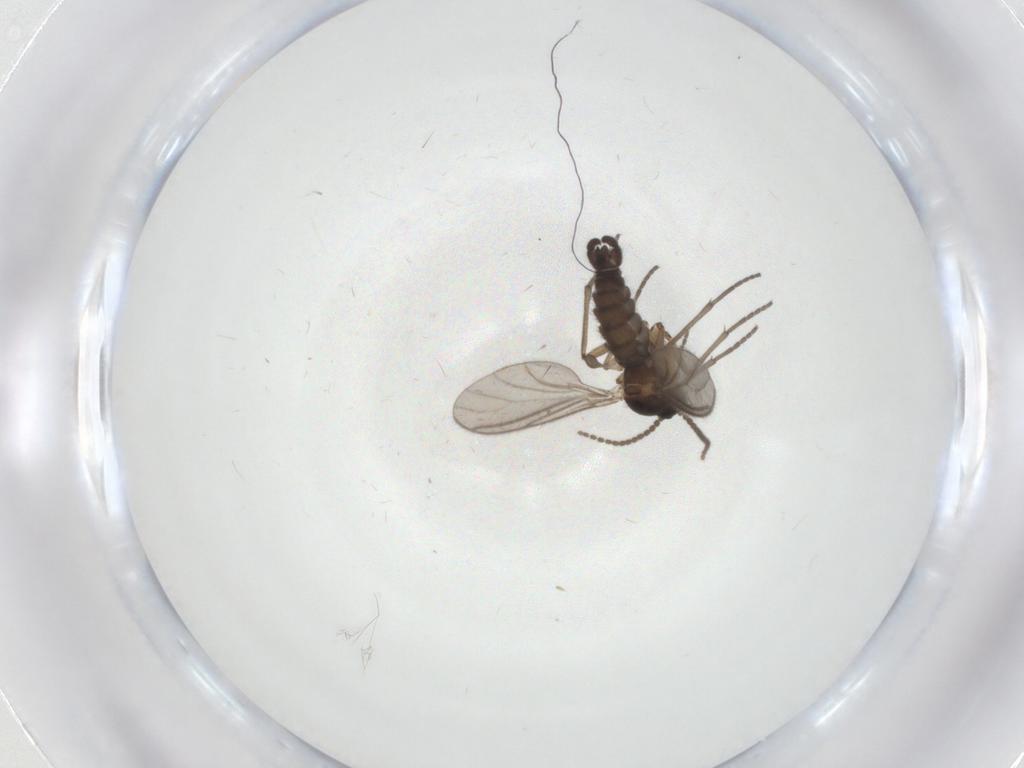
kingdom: Animalia
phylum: Arthropoda
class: Insecta
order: Diptera
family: Sciaridae
